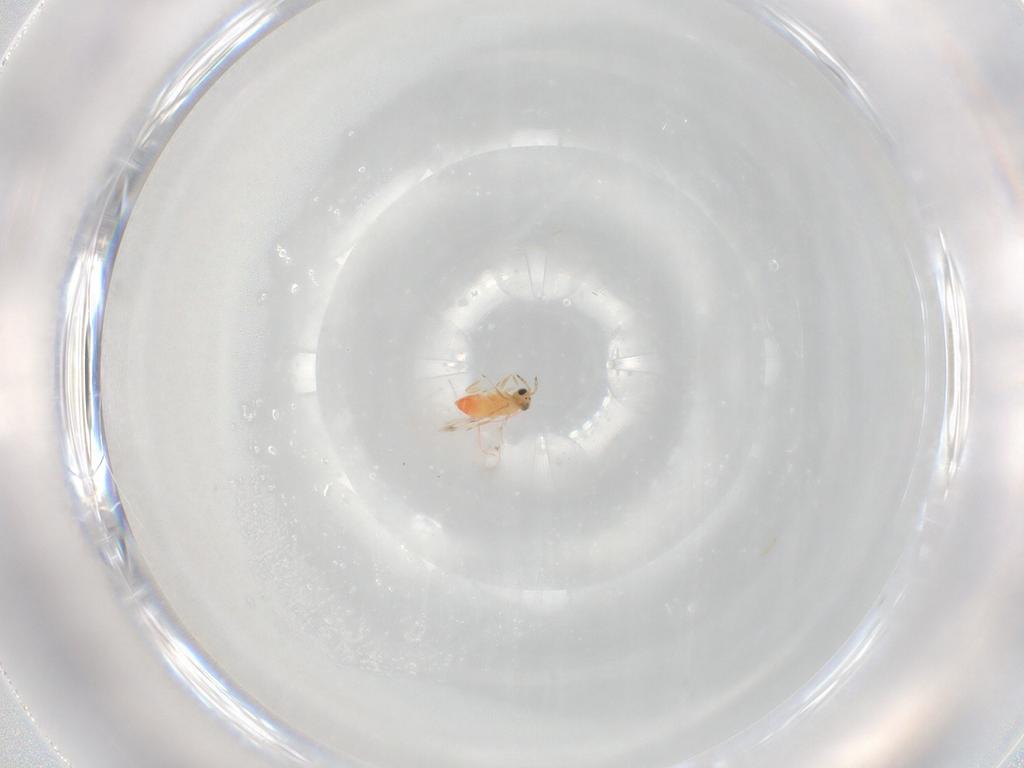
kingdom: Animalia
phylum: Arthropoda
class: Insecta
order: Hymenoptera
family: Trichogrammatidae
